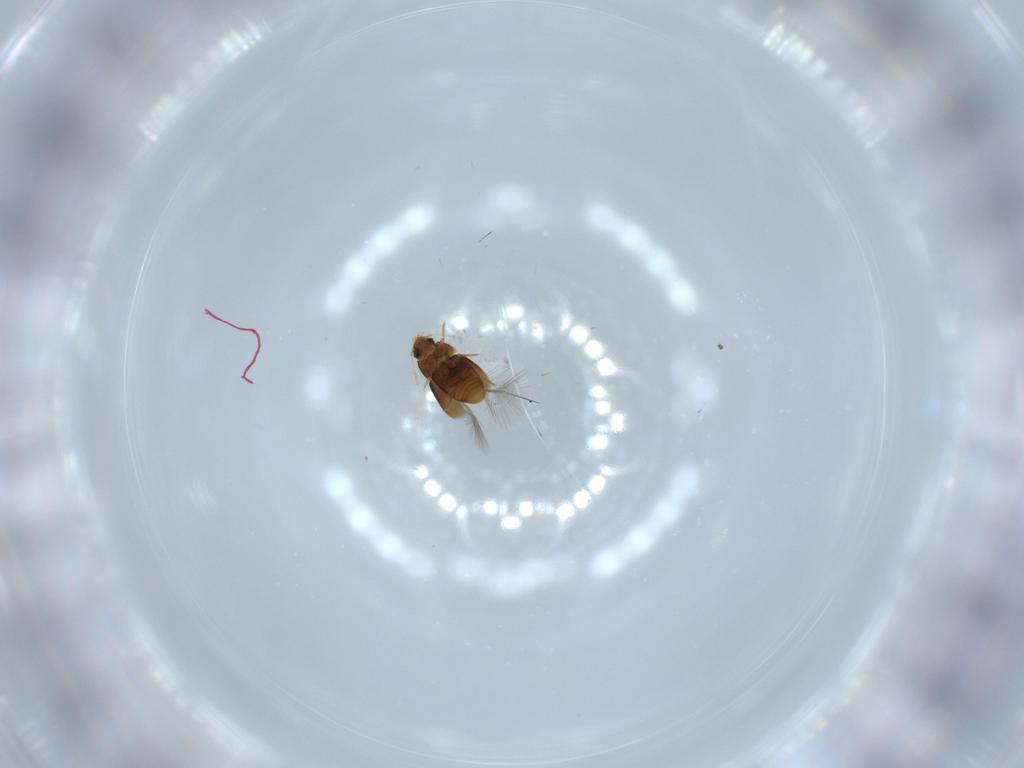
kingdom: Animalia
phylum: Arthropoda
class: Insecta
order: Coleoptera
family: Ptiliidae
